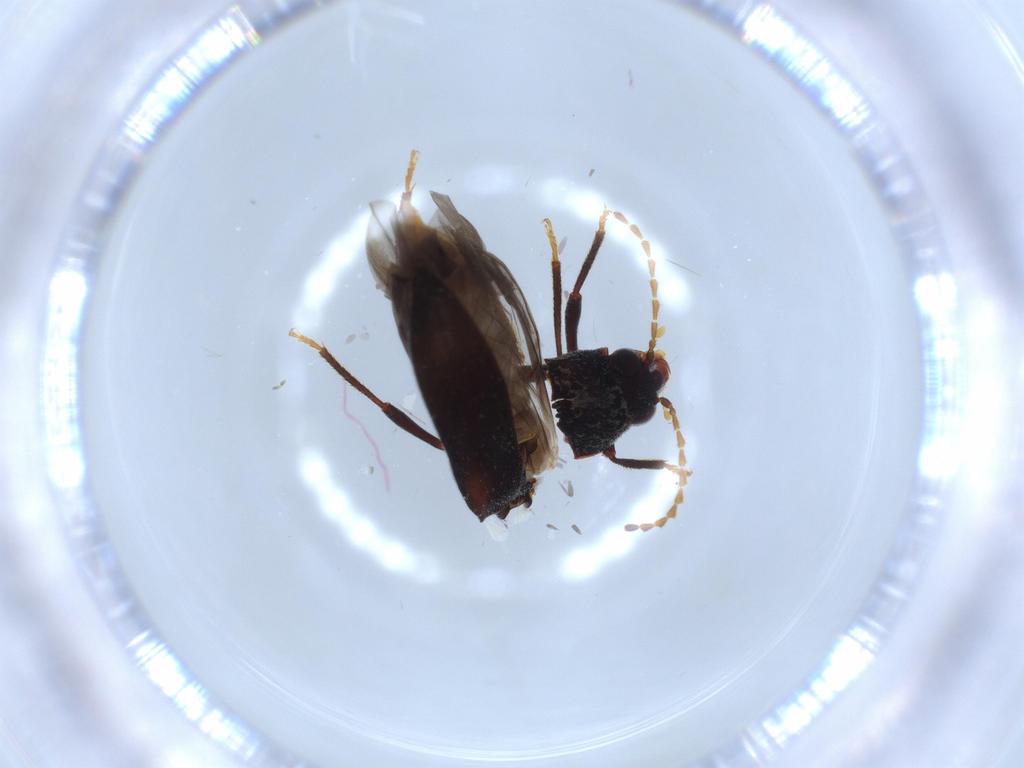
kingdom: Animalia
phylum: Arthropoda
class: Insecta
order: Coleoptera
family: Ptilodactylidae
